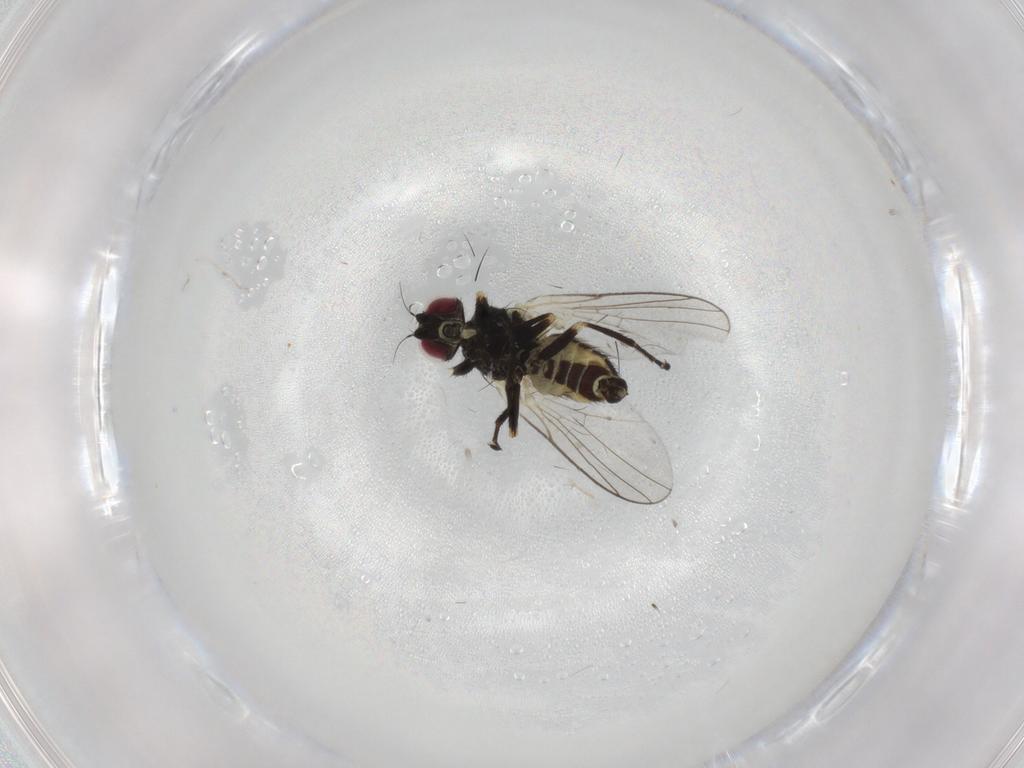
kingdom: Animalia
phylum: Arthropoda
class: Insecta
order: Diptera
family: Agromyzidae
